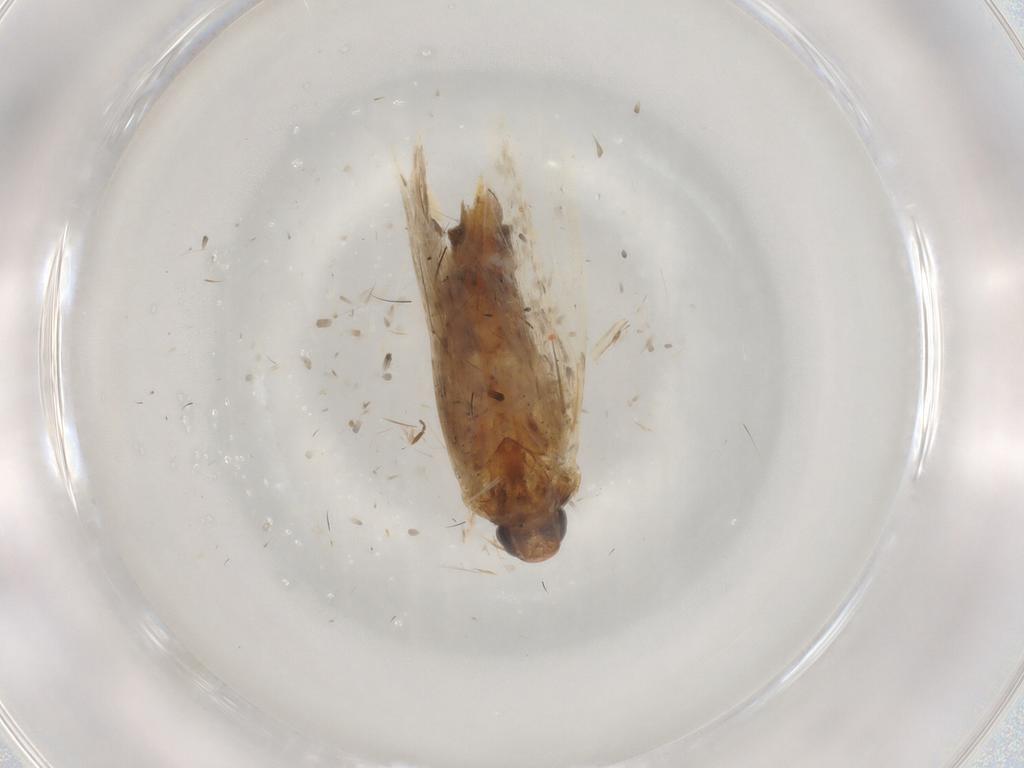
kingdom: Animalia
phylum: Arthropoda
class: Insecta
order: Lepidoptera
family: Gelechiidae
